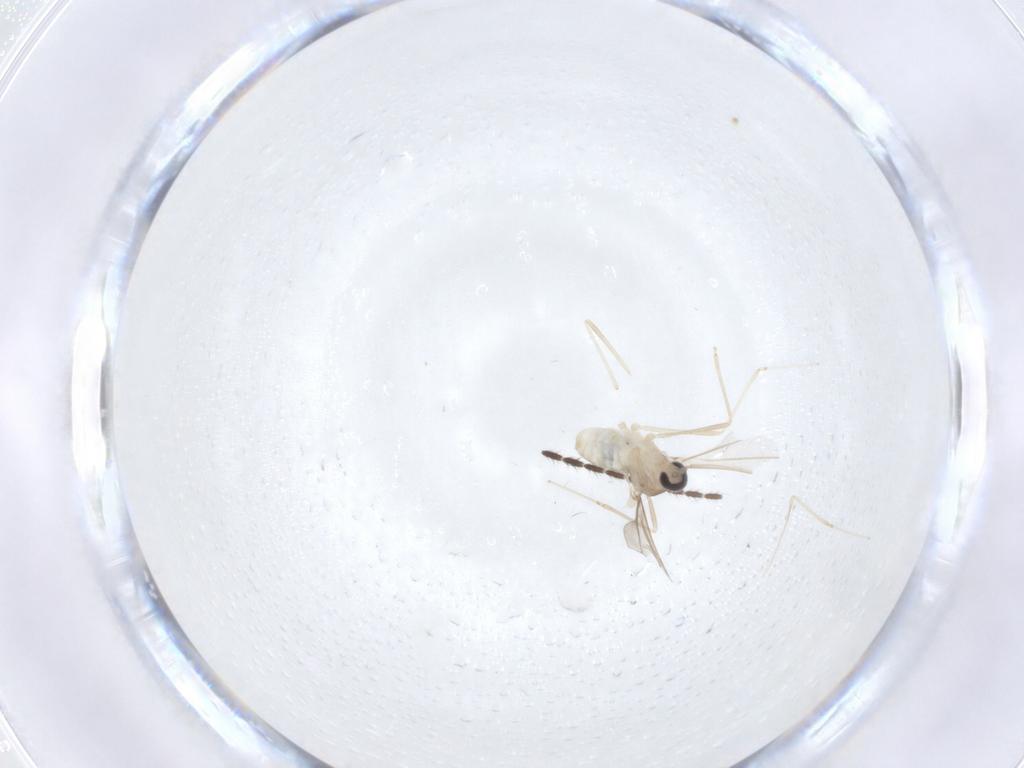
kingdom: Animalia
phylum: Arthropoda
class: Insecta
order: Diptera
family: Cecidomyiidae
